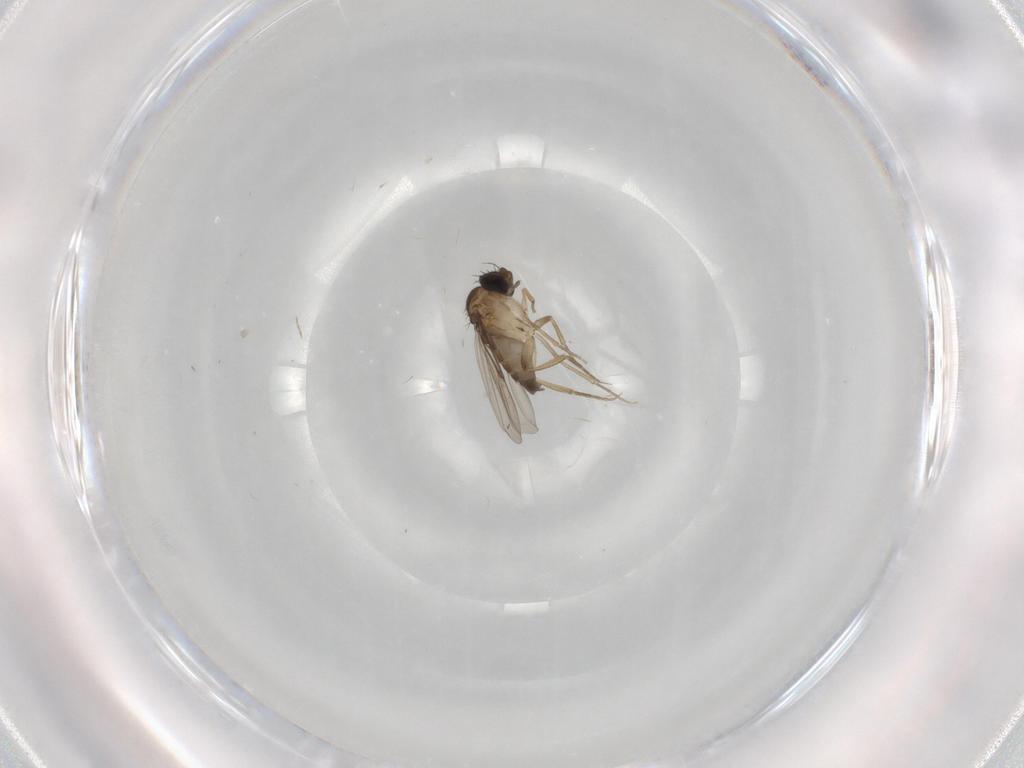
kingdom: Animalia
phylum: Arthropoda
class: Insecta
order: Diptera
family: Phoridae
